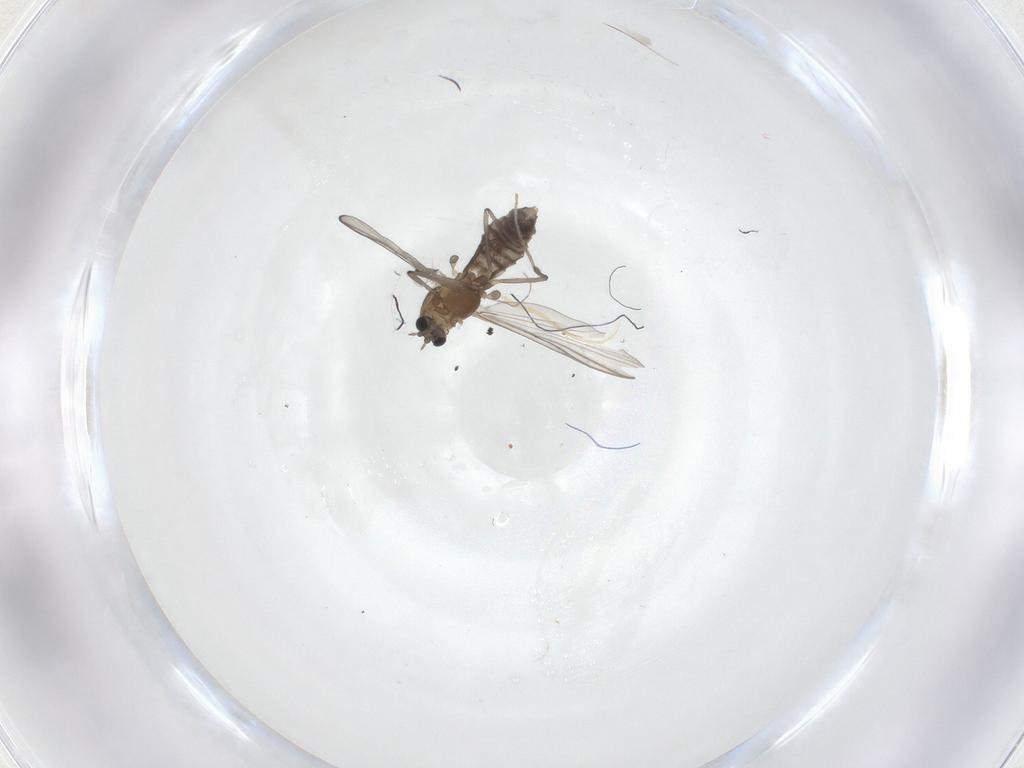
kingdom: Animalia
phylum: Arthropoda
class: Insecta
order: Diptera
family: Chironomidae
